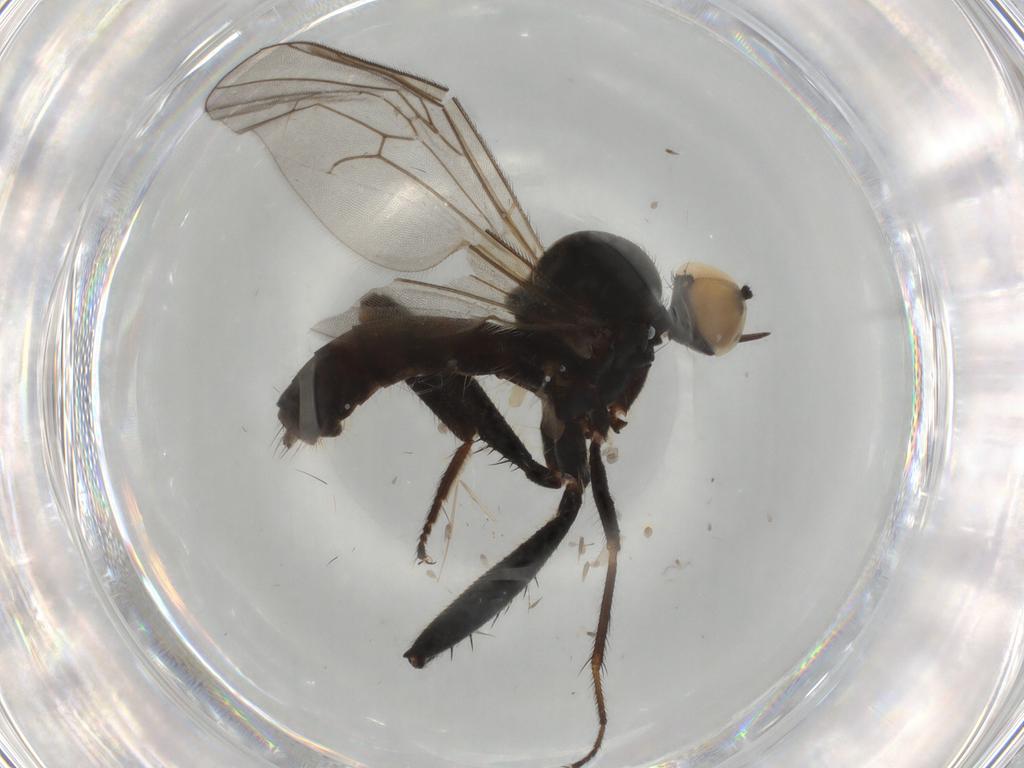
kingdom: Animalia
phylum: Arthropoda
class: Insecta
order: Diptera
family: Hybotidae
